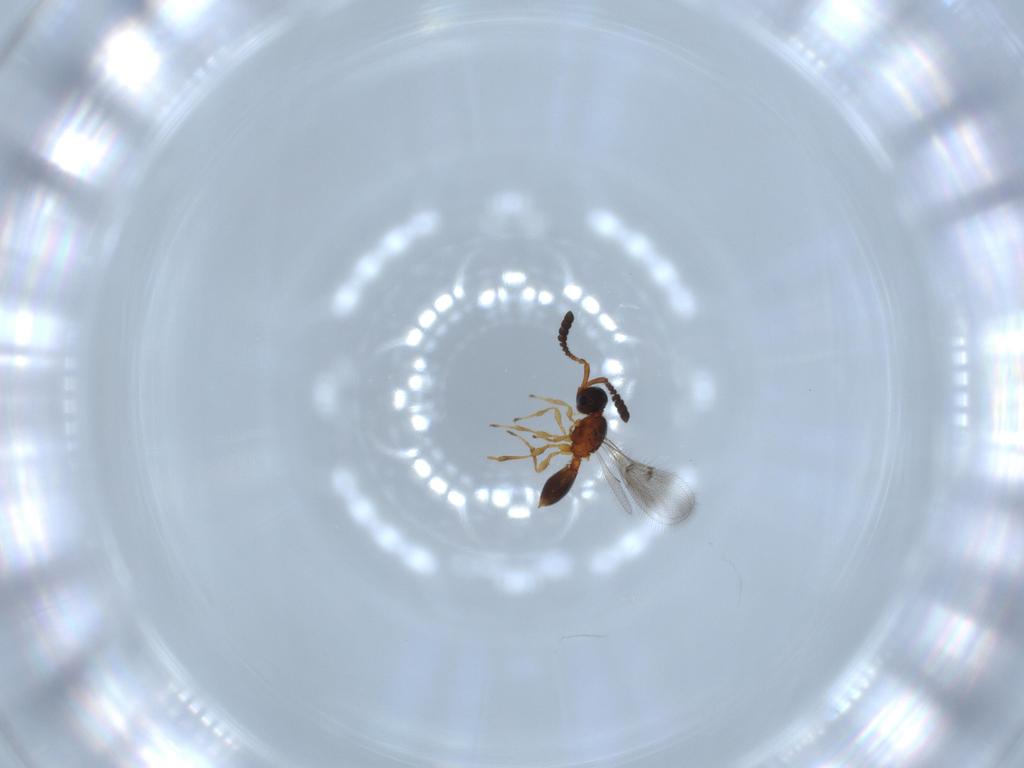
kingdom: Animalia
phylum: Arthropoda
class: Insecta
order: Hymenoptera
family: Diapriidae
